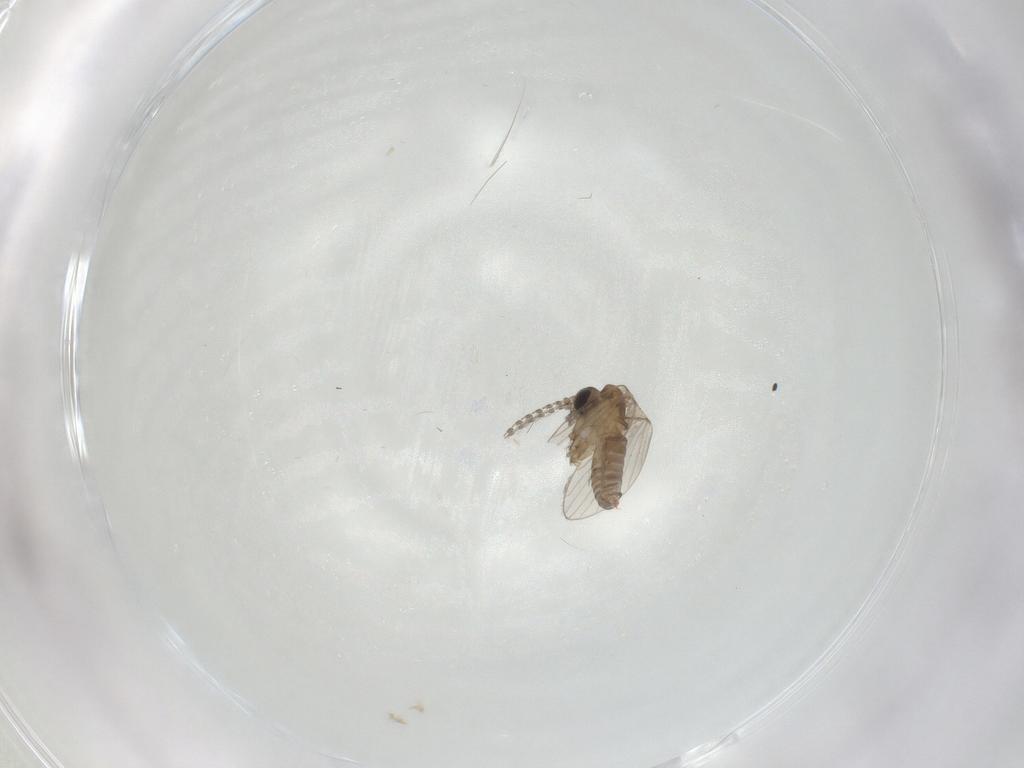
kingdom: Animalia
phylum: Arthropoda
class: Insecta
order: Diptera
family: Psychodidae
